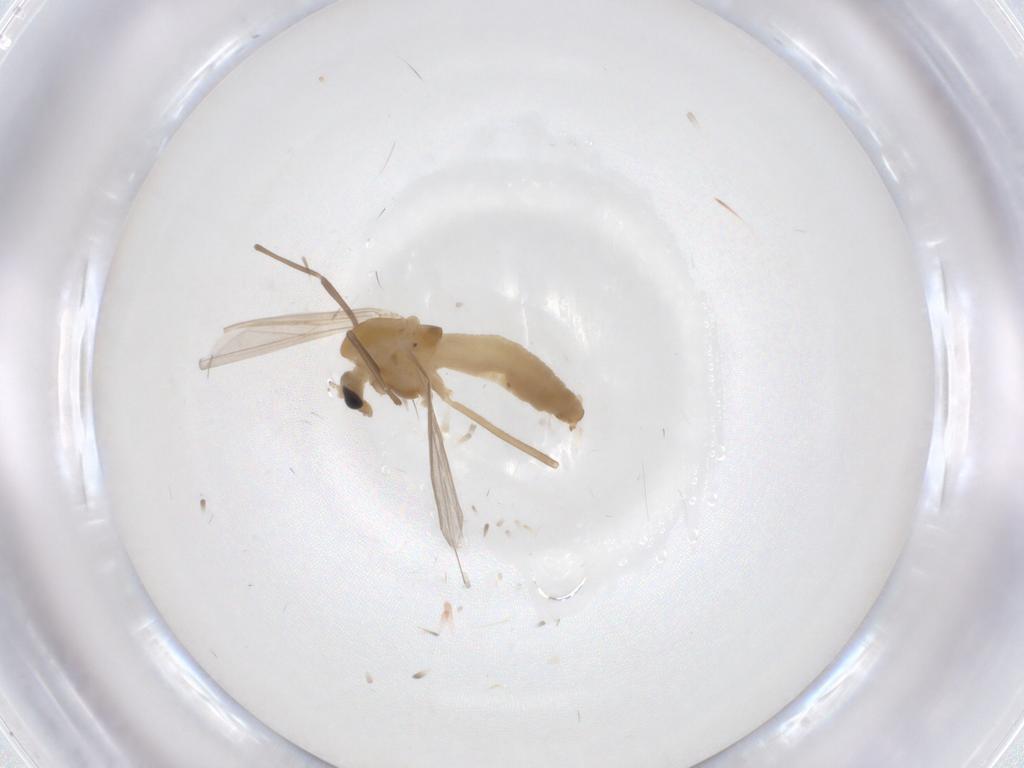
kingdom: Animalia
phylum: Arthropoda
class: Insecta
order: Diptera
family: Chironomidae
